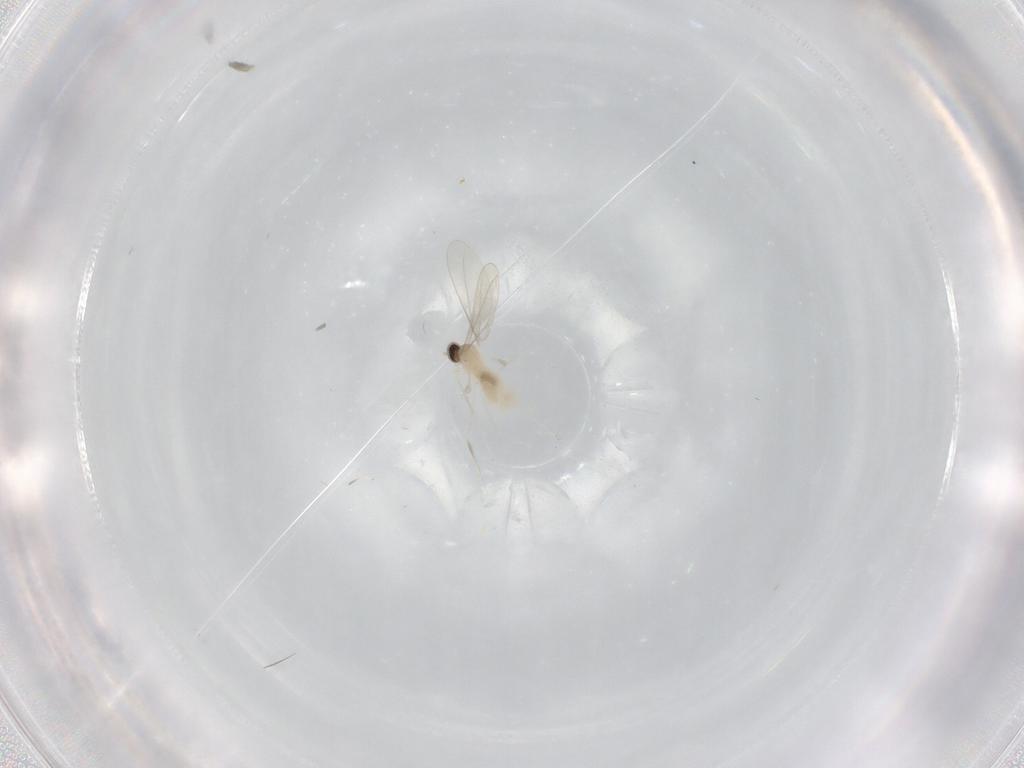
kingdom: Animalia
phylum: Arthropoda
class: Insecta
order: Diptera
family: Cecidomyiidae
